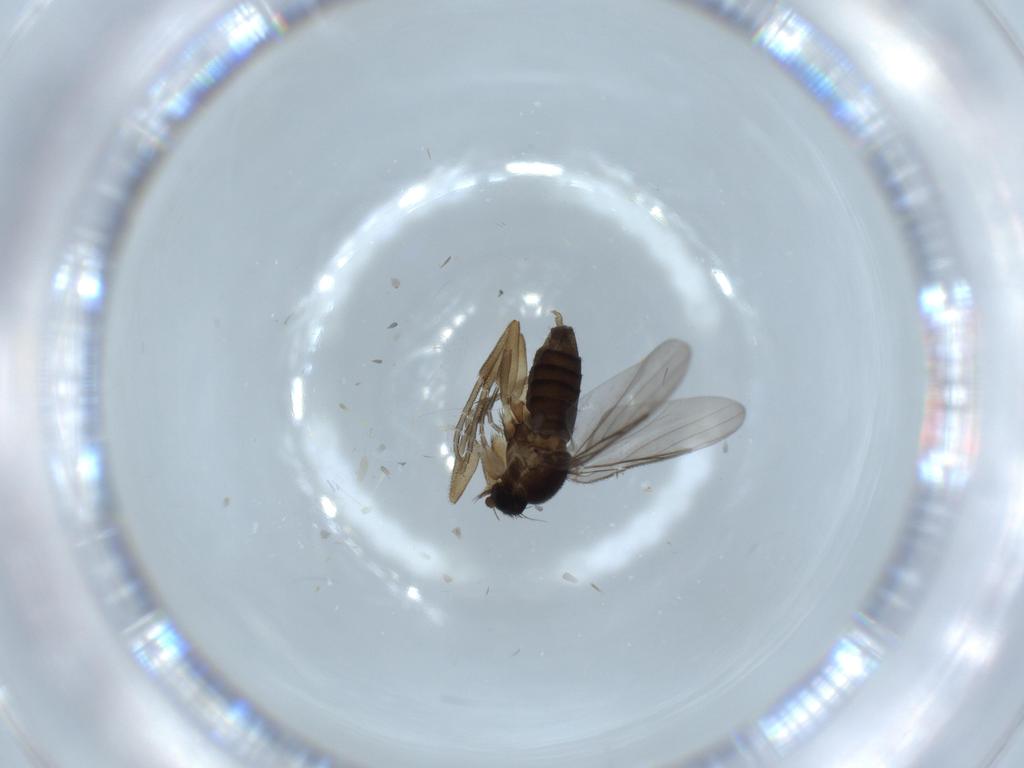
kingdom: Animalia
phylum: Arthropoda
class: Insecta
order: Diptera
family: Phoridae
